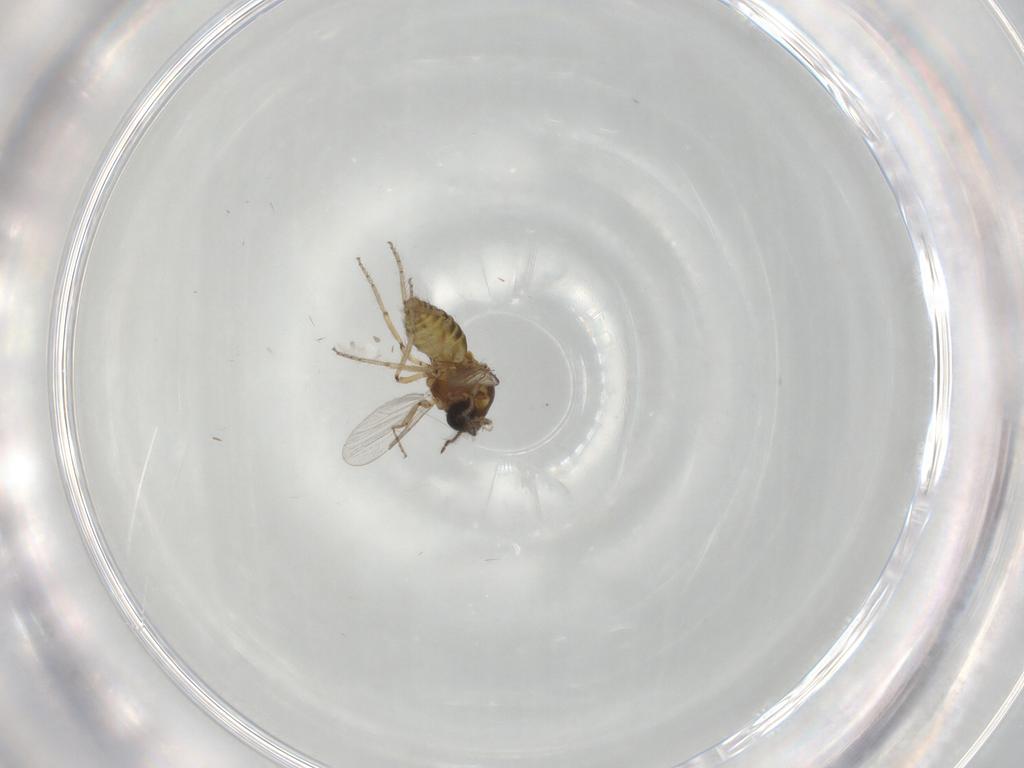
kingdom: Animalia
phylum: Arthropoda
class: Insecta
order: Diptera
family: Ceratopogonidae
